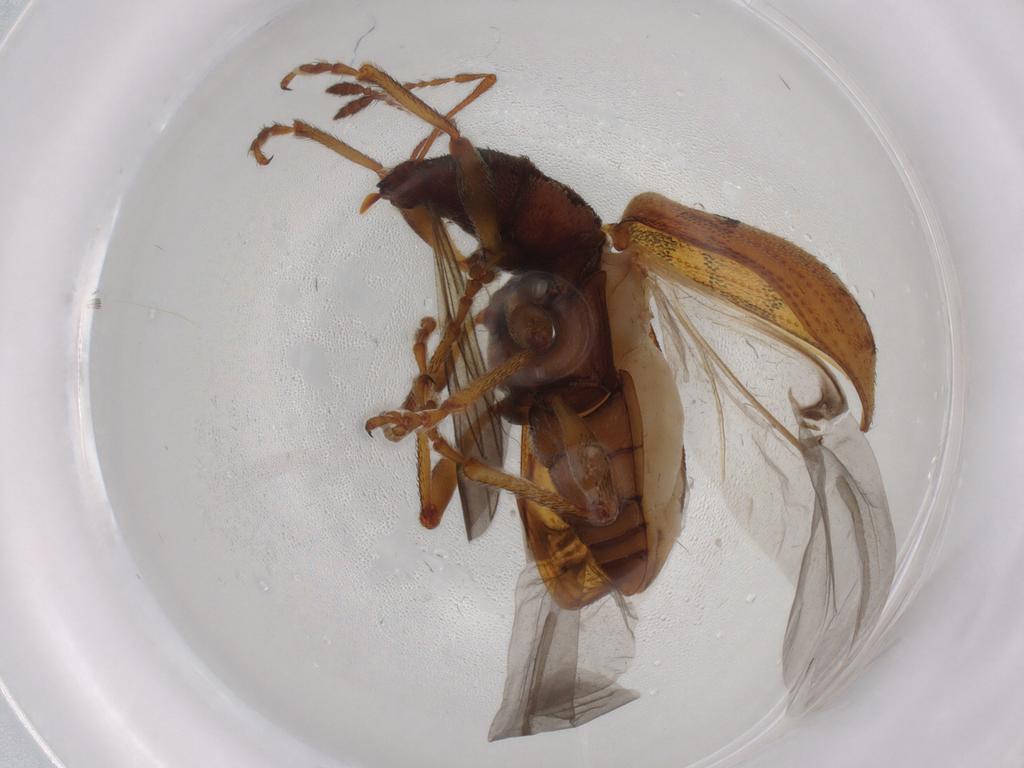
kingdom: Animalia
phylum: Arthropoda
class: Insecta
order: Coleoptera
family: Curculionidae
